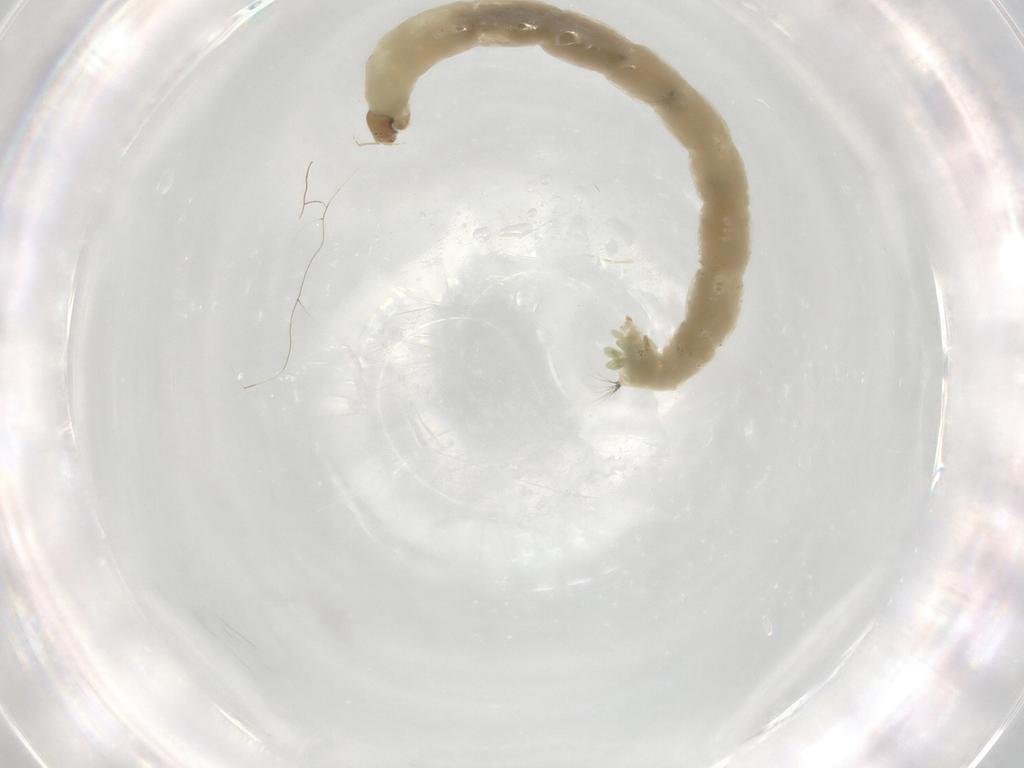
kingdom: Animalia
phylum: Arthropoda
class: Insecta
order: Diptera
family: Chironomidae
